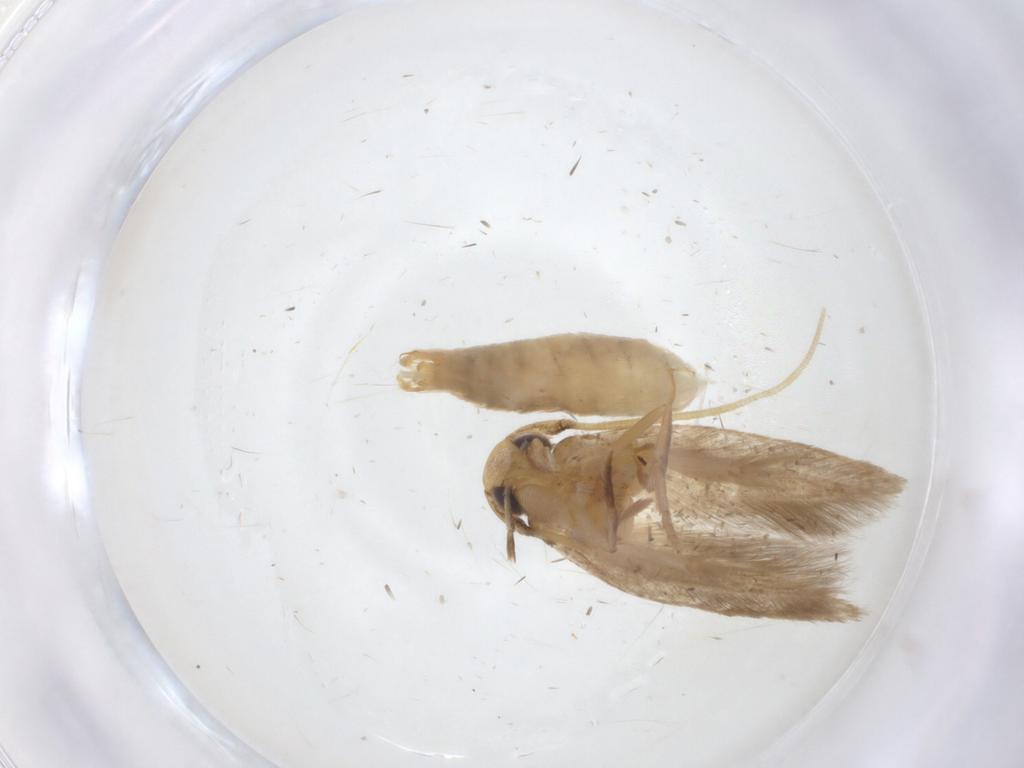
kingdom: Animalia
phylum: Arthropoda
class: Insecta
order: Lepidoptera
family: Tineidae
